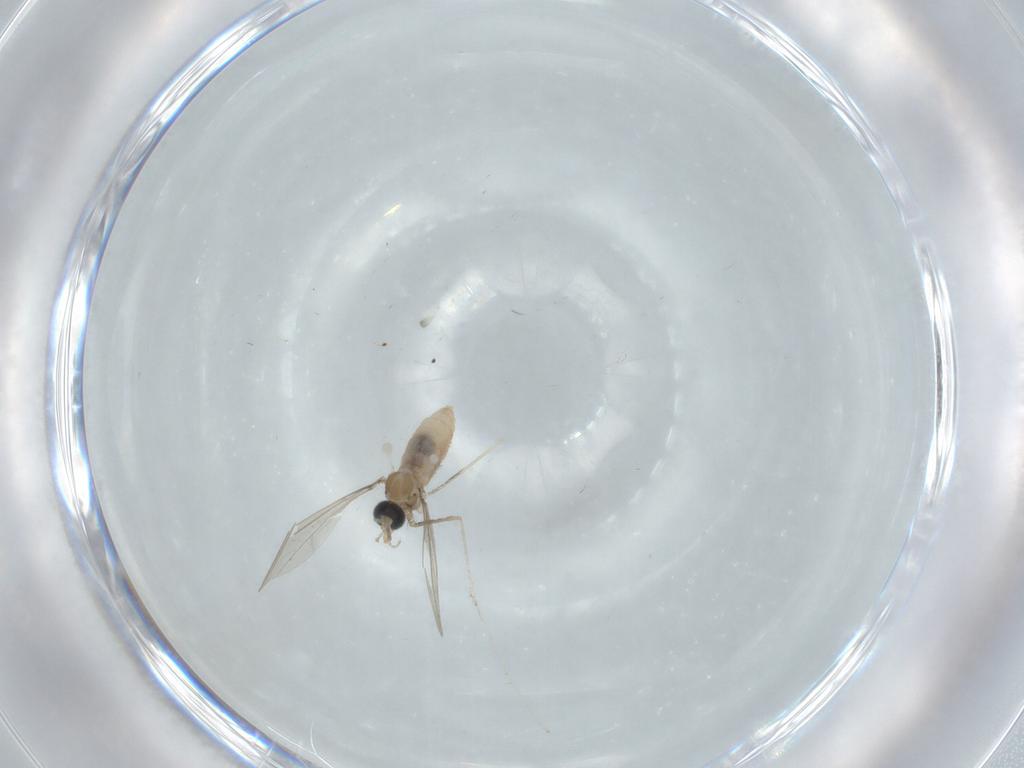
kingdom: Animalia
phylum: Arthropoda
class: Insecta
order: Diptera
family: Cecidomyiidae
